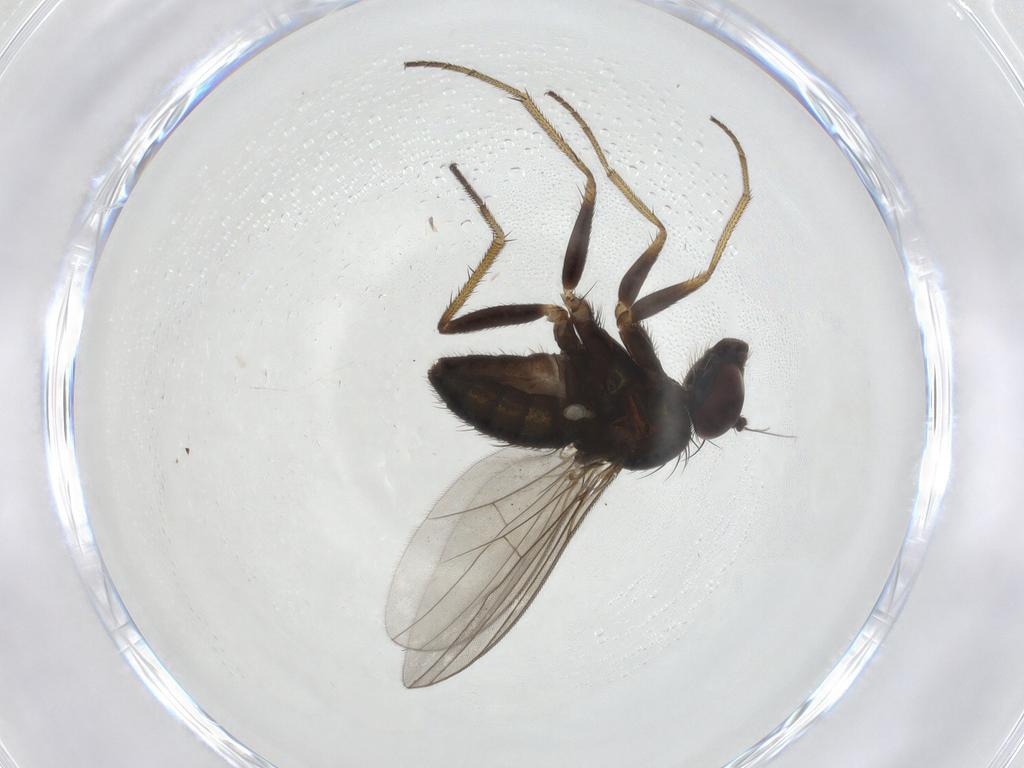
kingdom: Animalia
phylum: Arthropoda
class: Insecta
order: Diptera
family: Dolichopodidae
